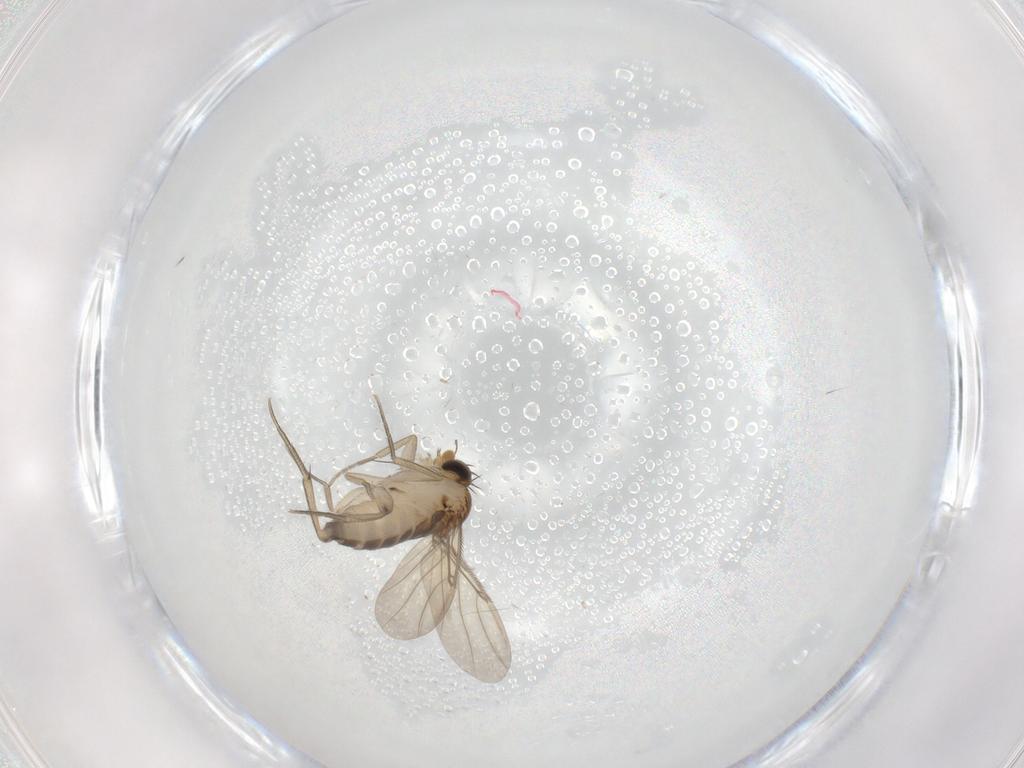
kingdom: Animalia
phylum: Arthropoda
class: Insecta
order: Diptera
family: Phoridae
